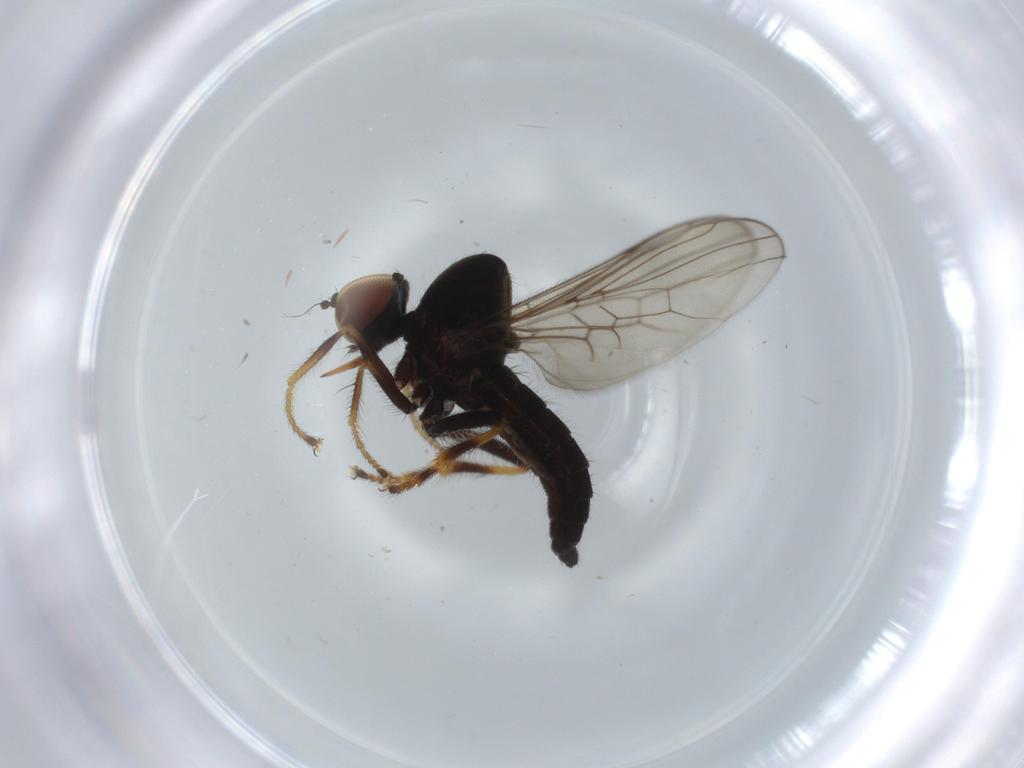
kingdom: Animalia
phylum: Arthropoda
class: Insecta
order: Diptera
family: Hybotidae
